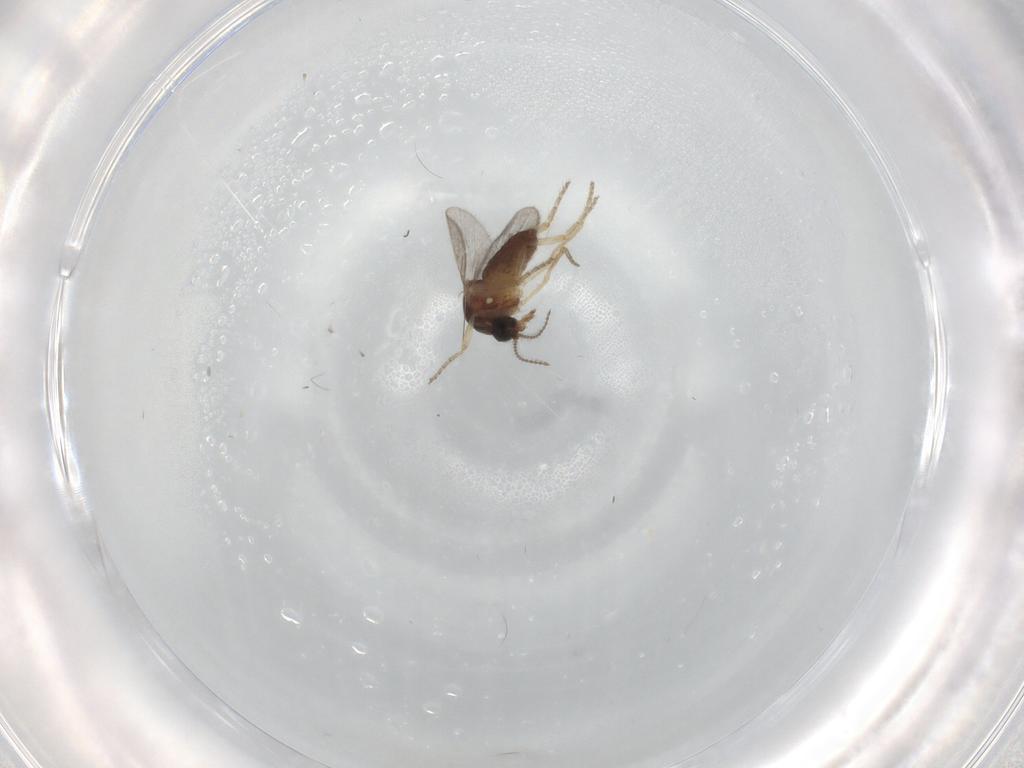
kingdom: Animalia
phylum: Arthropoda
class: Insecta
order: Diptera
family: Ceratopogonidae
